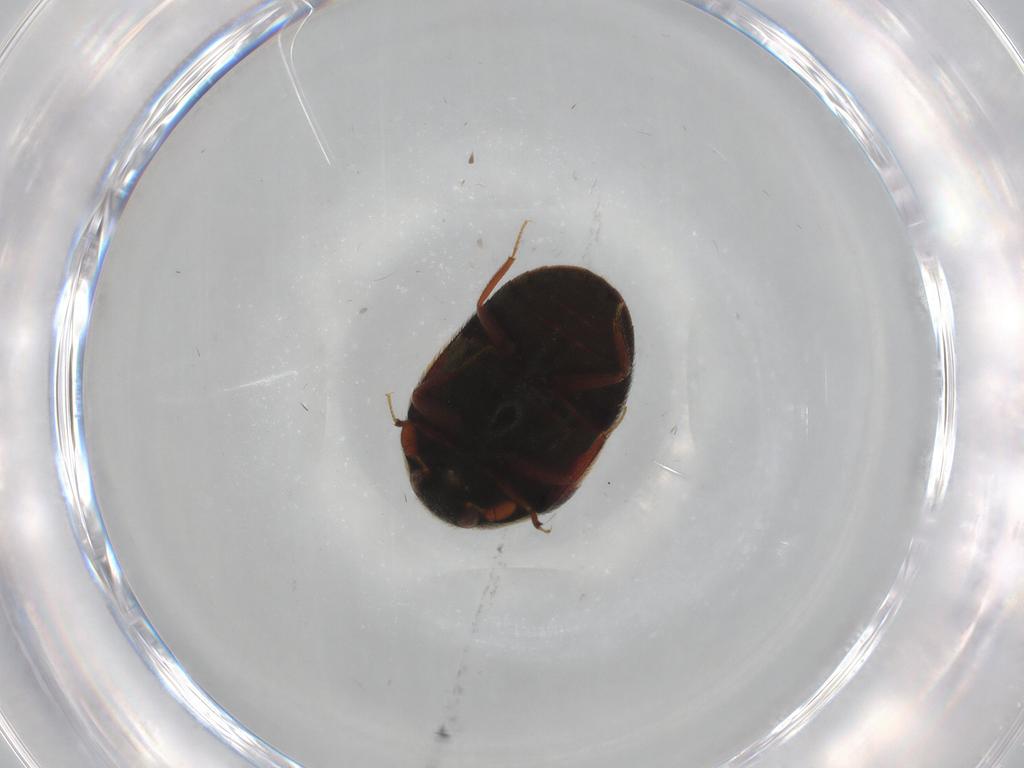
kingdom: Animalia
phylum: Arthropoda
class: Insecta
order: Coleoptera
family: Dermestidae
